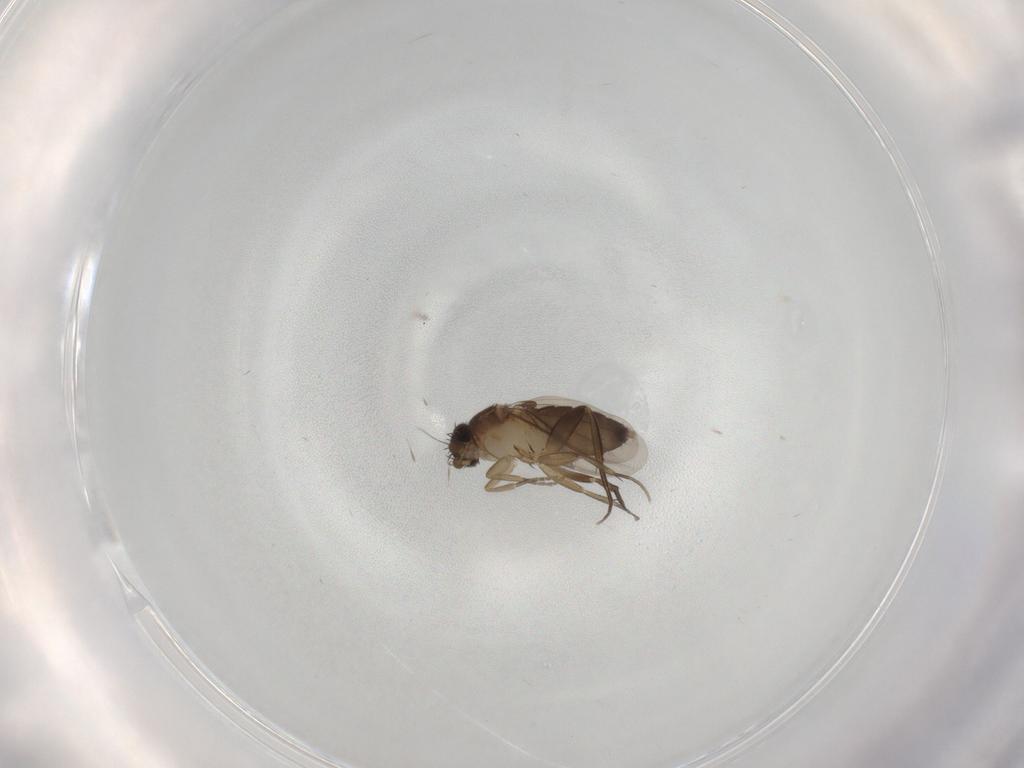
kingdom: Animalia
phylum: Arthropoda
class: Insecta
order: Diptera
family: Phoridae
